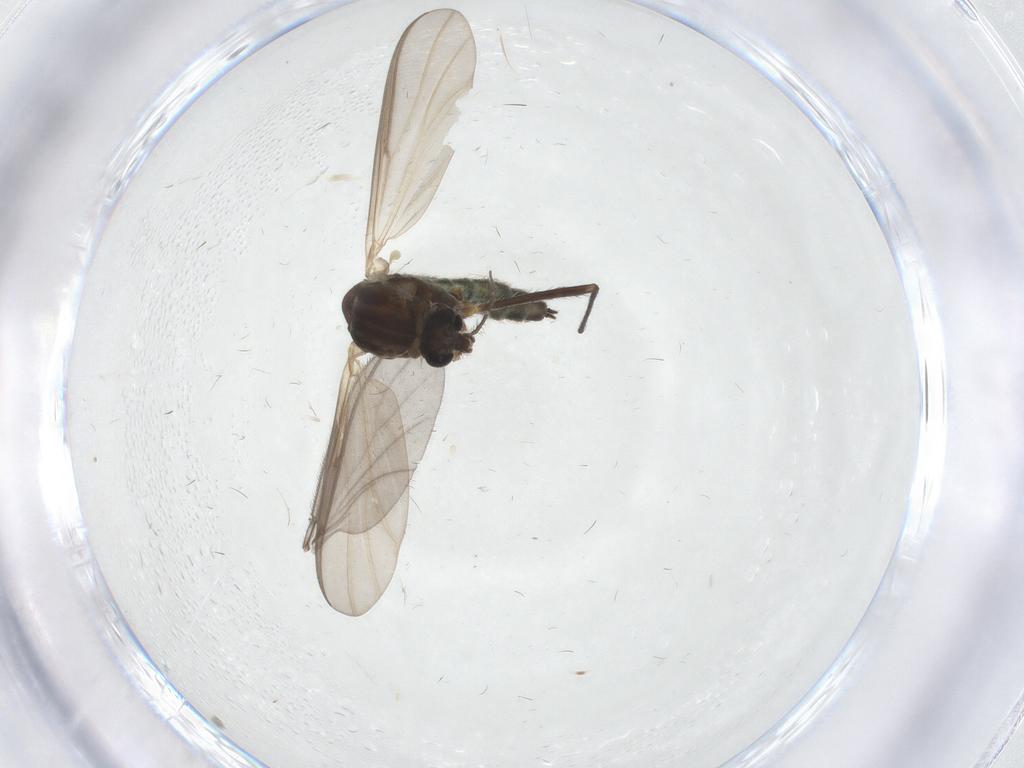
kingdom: Animalia
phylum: Arthropoda
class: Insecta
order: Diptera
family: Chironomidae
